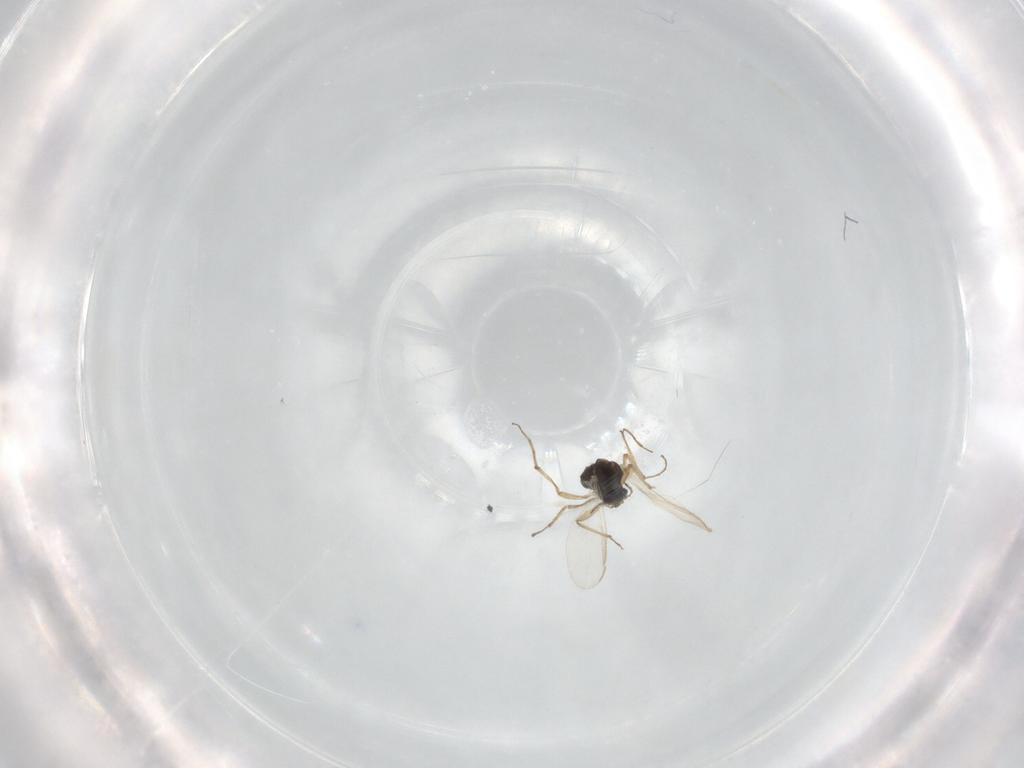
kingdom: Animalia
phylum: Arthropoda
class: Insecta
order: Diptera
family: Chironomidae
